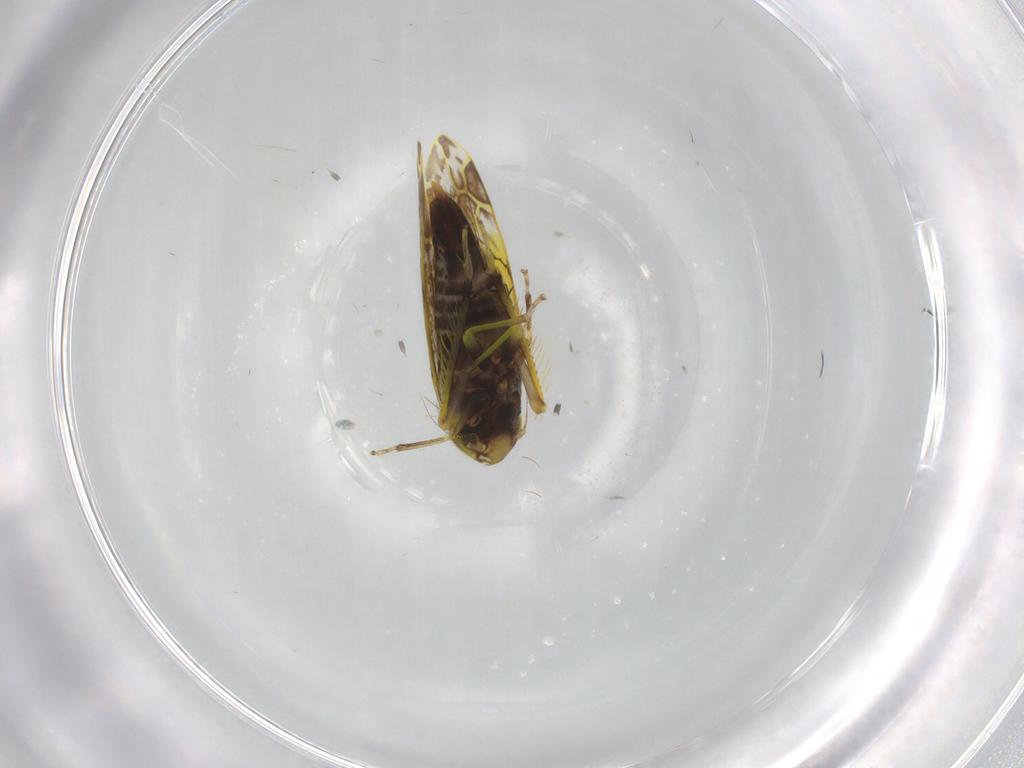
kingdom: Animalia
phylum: Arthropoda
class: Insecta
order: Hemiptera
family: Cicadellidae
